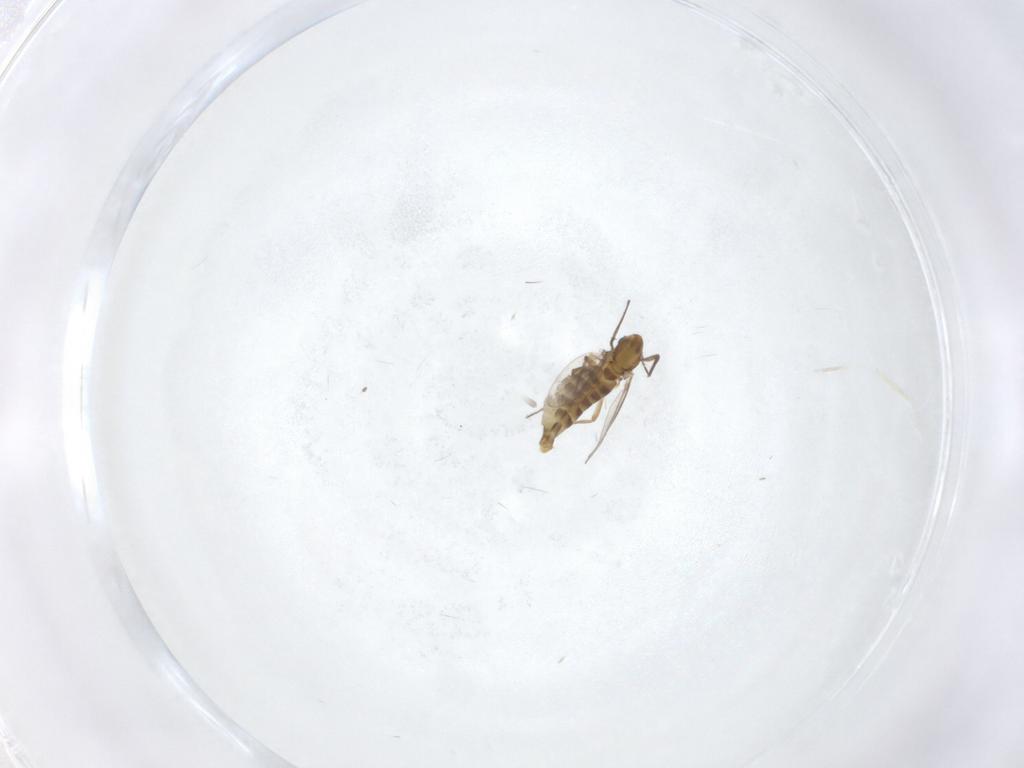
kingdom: Animalia
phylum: Arthropoda
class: Insecta
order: Diptera
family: Chironomidae
